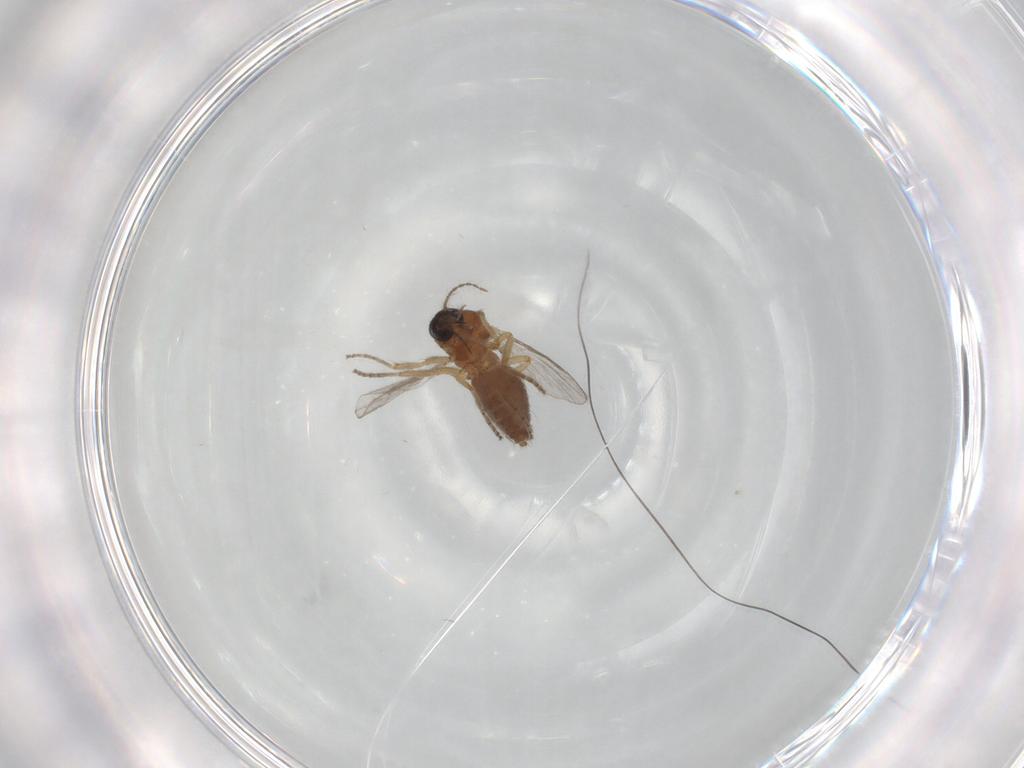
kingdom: Animalia
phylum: Arthropoda
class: Insecta
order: Diptera
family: Ceratopogonidae
